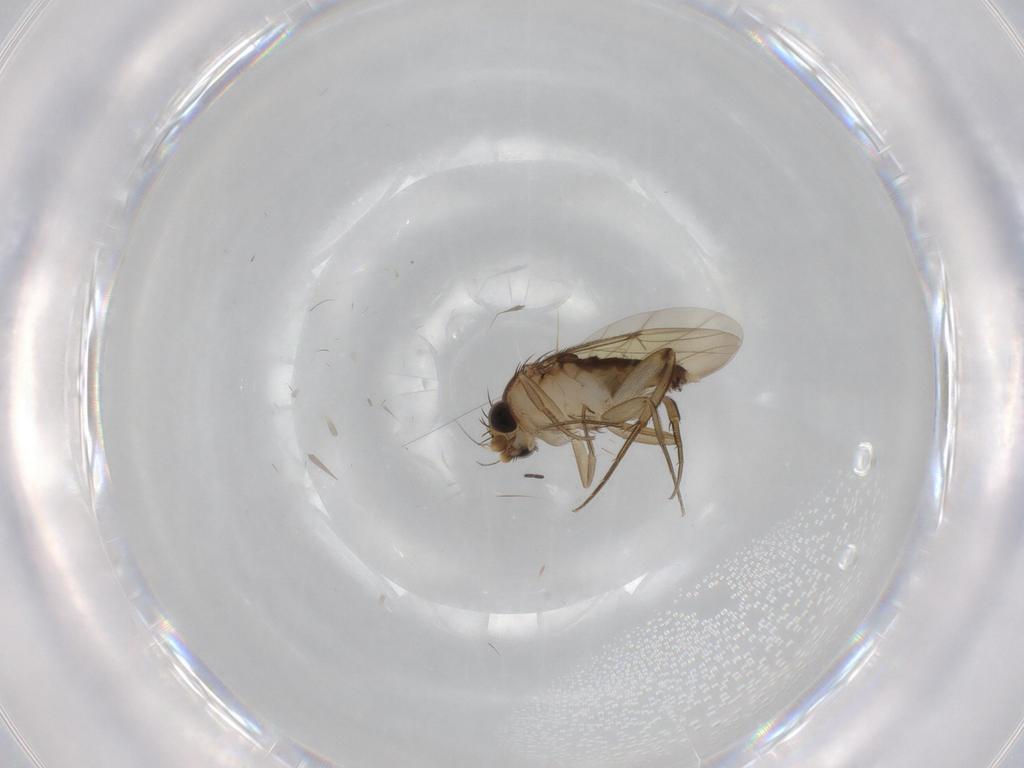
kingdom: Animalia
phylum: Arthropoda
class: Insecta
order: Diptera
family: Phoridae
